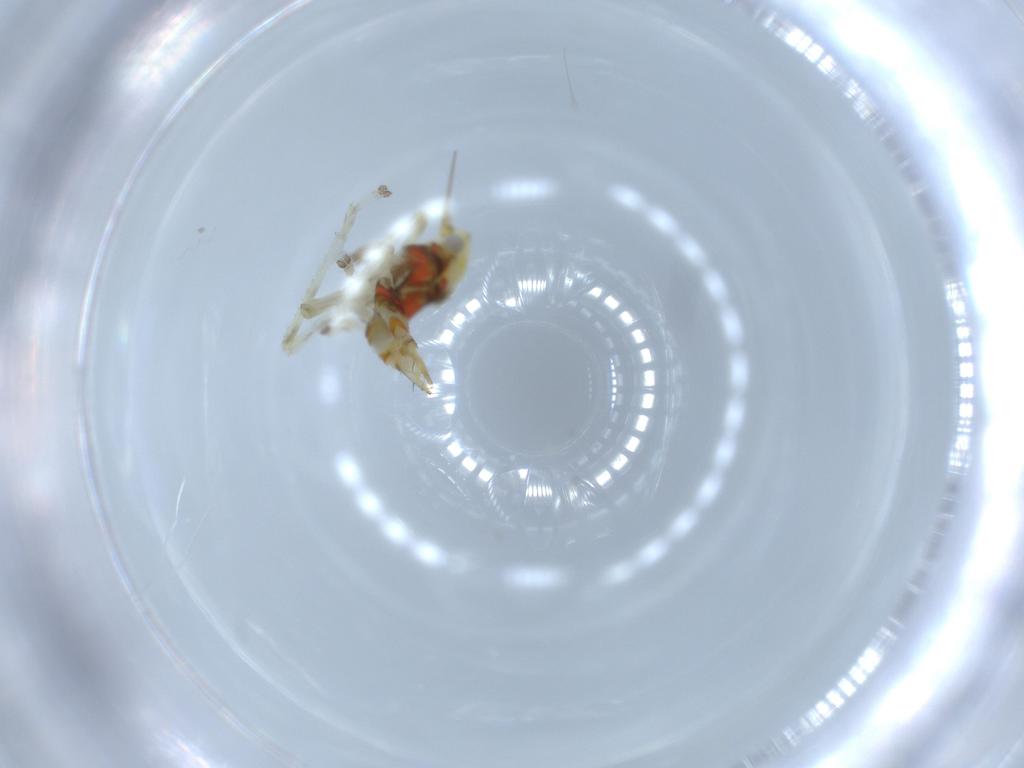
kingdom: Animalia
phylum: Arthropoda
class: Insecta
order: Hemiptera
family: Cicadellidae
